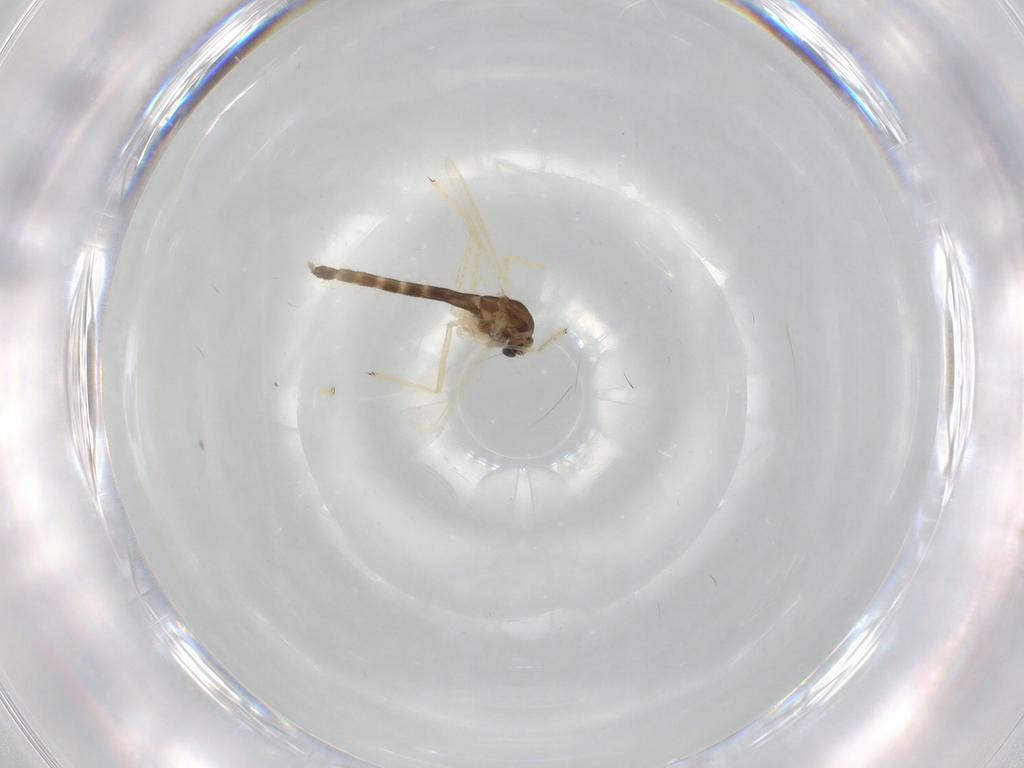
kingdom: Animalia
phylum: Arthropoda
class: Insecta
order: Diptera
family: Chironomidae
